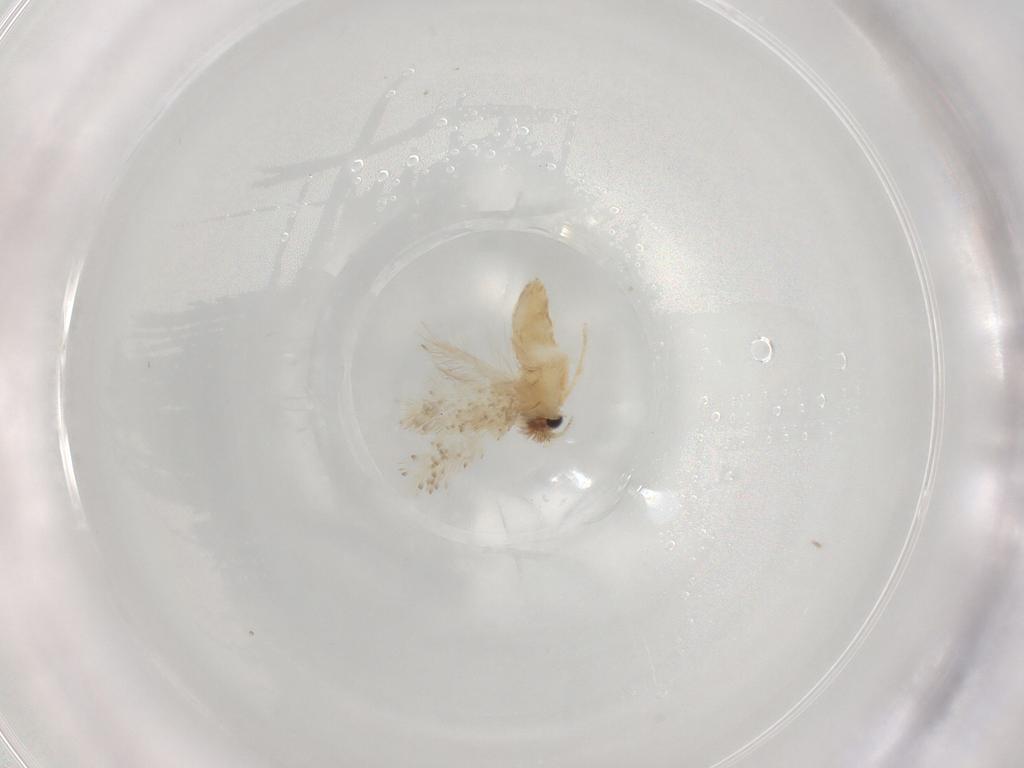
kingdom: Animalia
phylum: Arthropoda
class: Insecta
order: Lepidoptera
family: Nepticulidae
